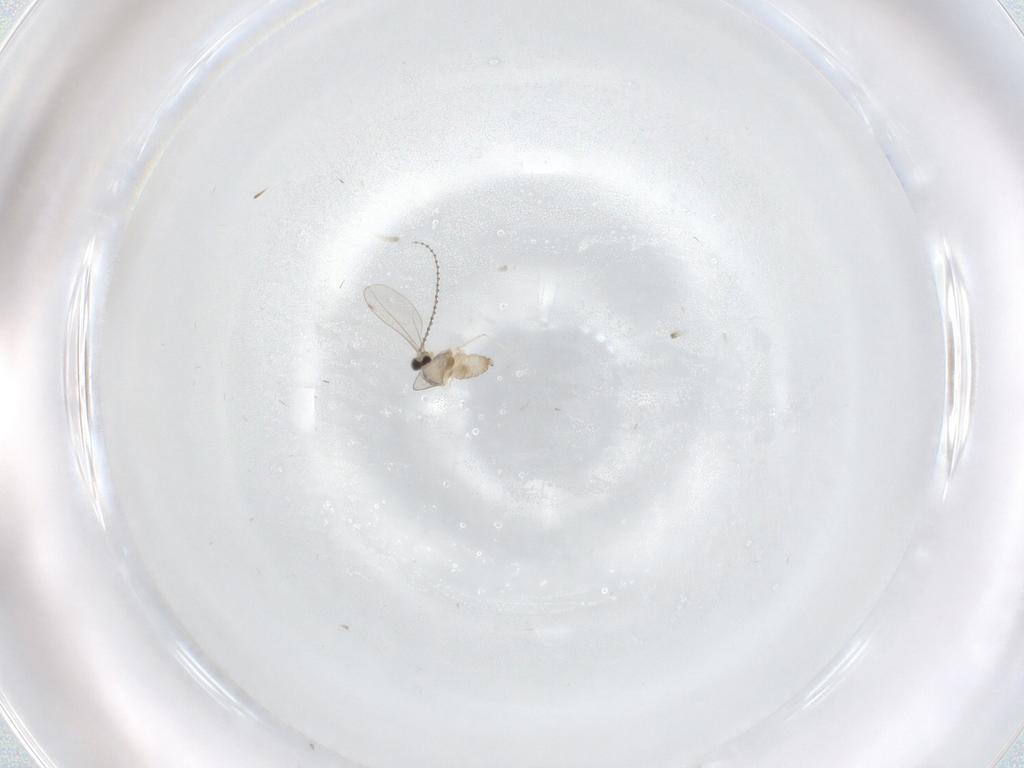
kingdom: Animalia
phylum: Arthropoda
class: Insecta
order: Diptera
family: Cecidomyiidae
